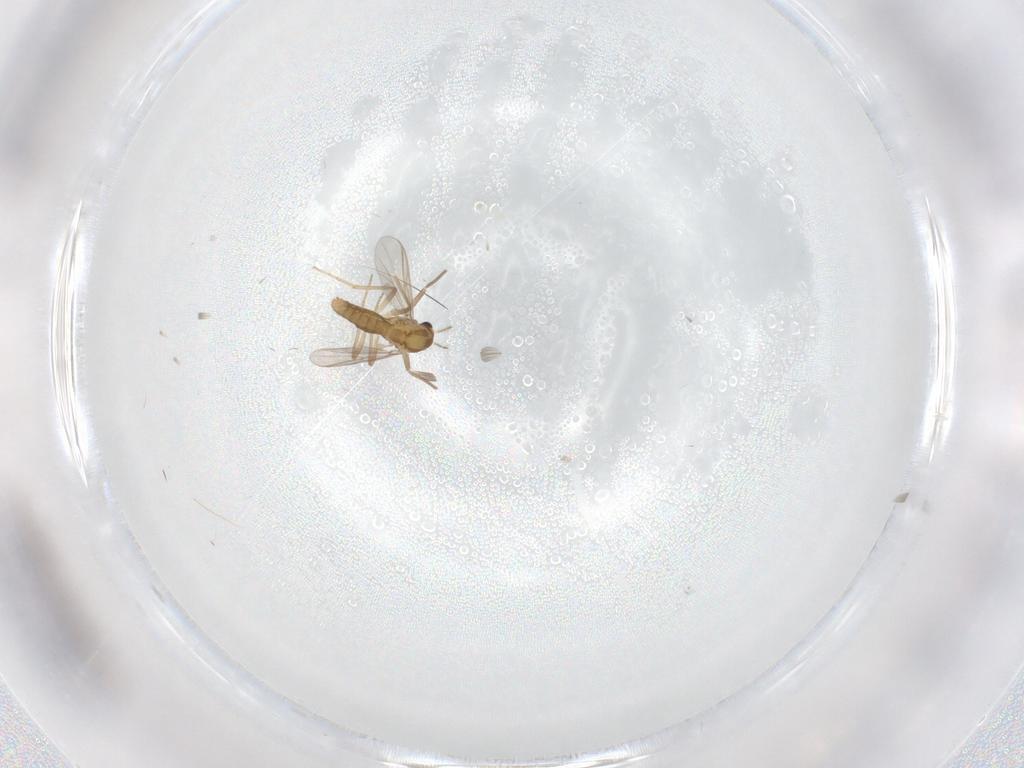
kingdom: Animalia
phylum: Arthropoda
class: Insecta
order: Diptera
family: Chironomidae
